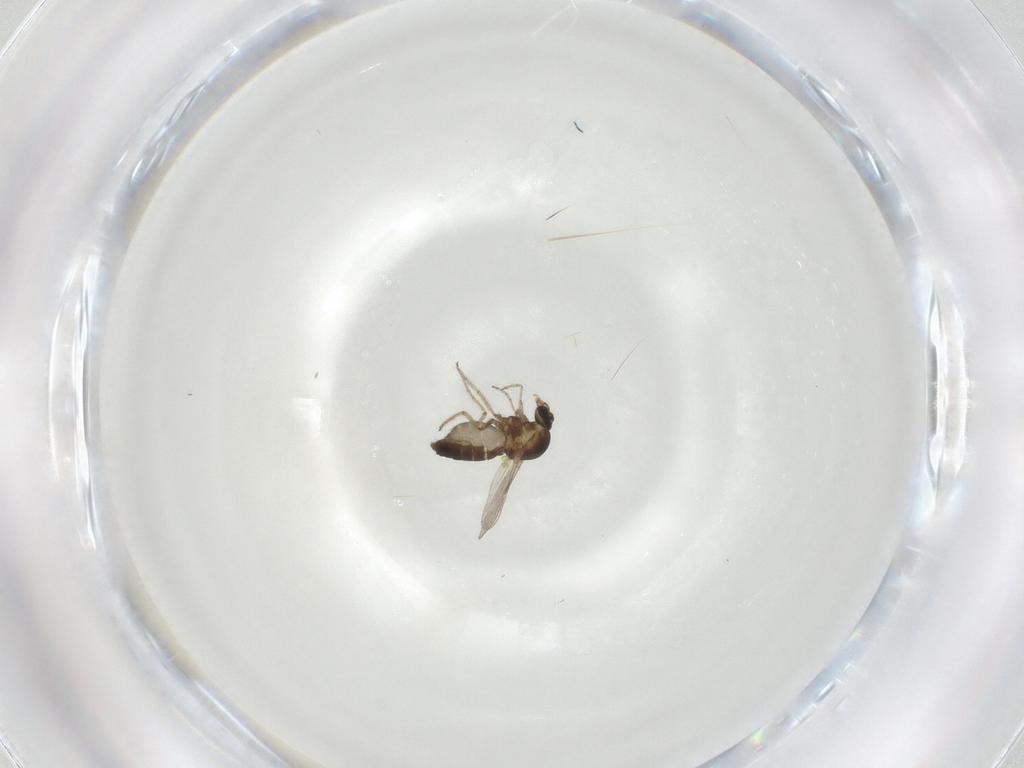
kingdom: Animalia
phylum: Arthropoda
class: Insecta
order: Diptera
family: Ceratopogonidae
